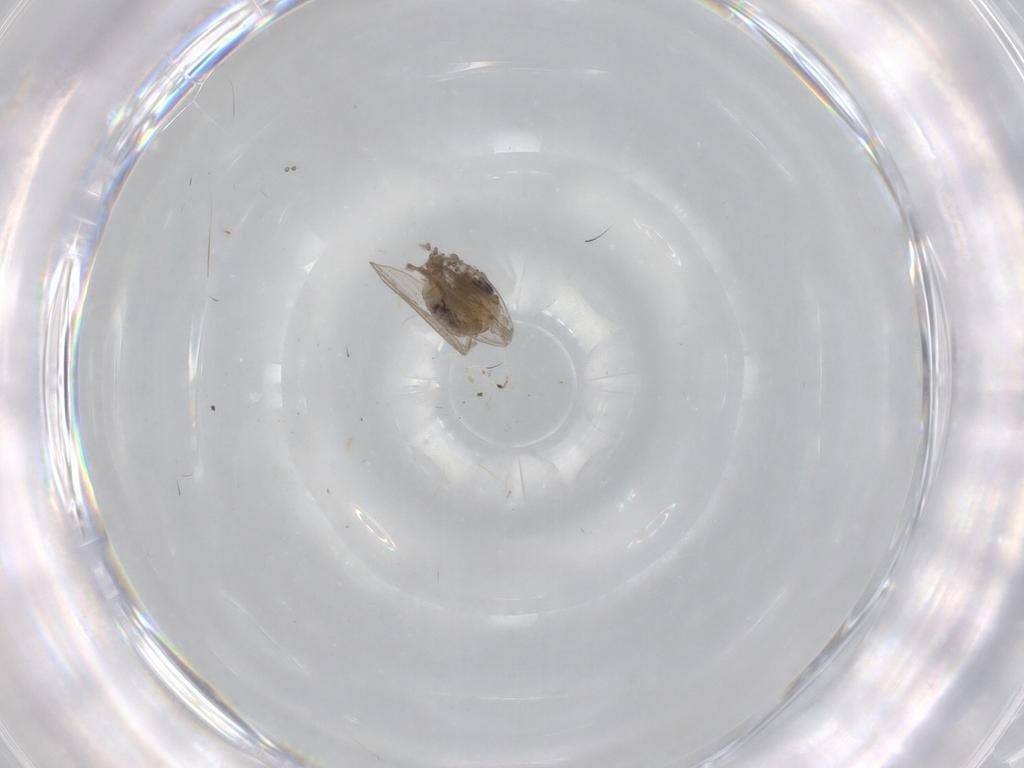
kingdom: Animalia
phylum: Arthropoda
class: Insecta
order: Diptera
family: Psychodidae
